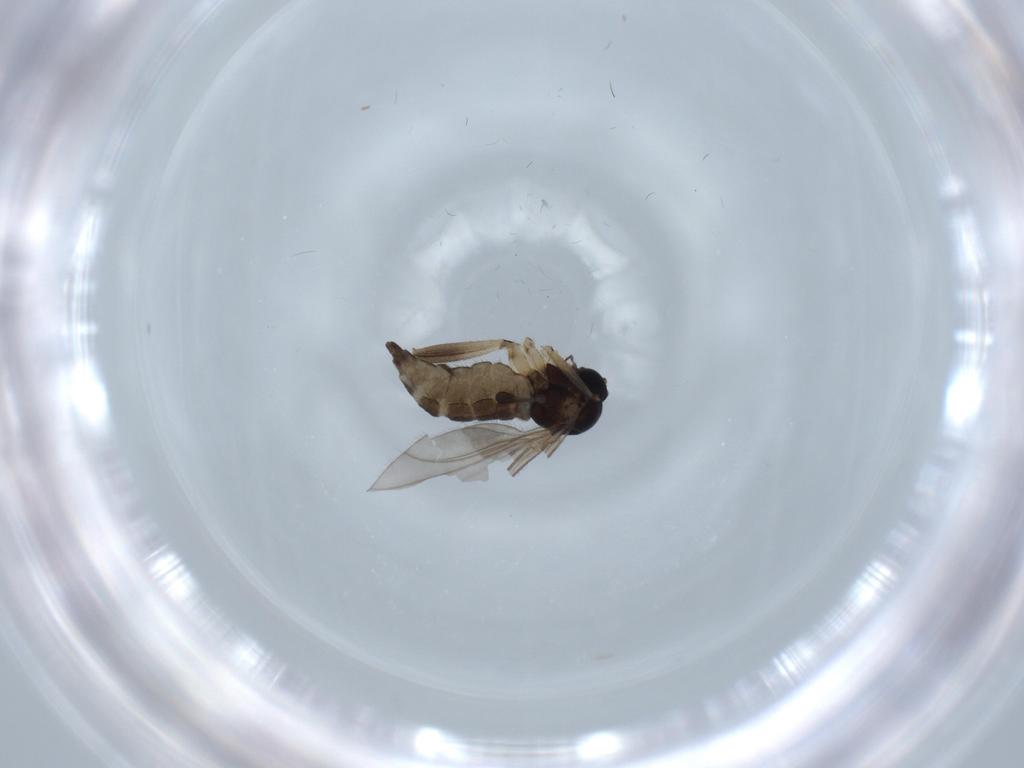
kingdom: Animalia
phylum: Arthropoda
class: Insecta
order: Diptera
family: Sciaridae
